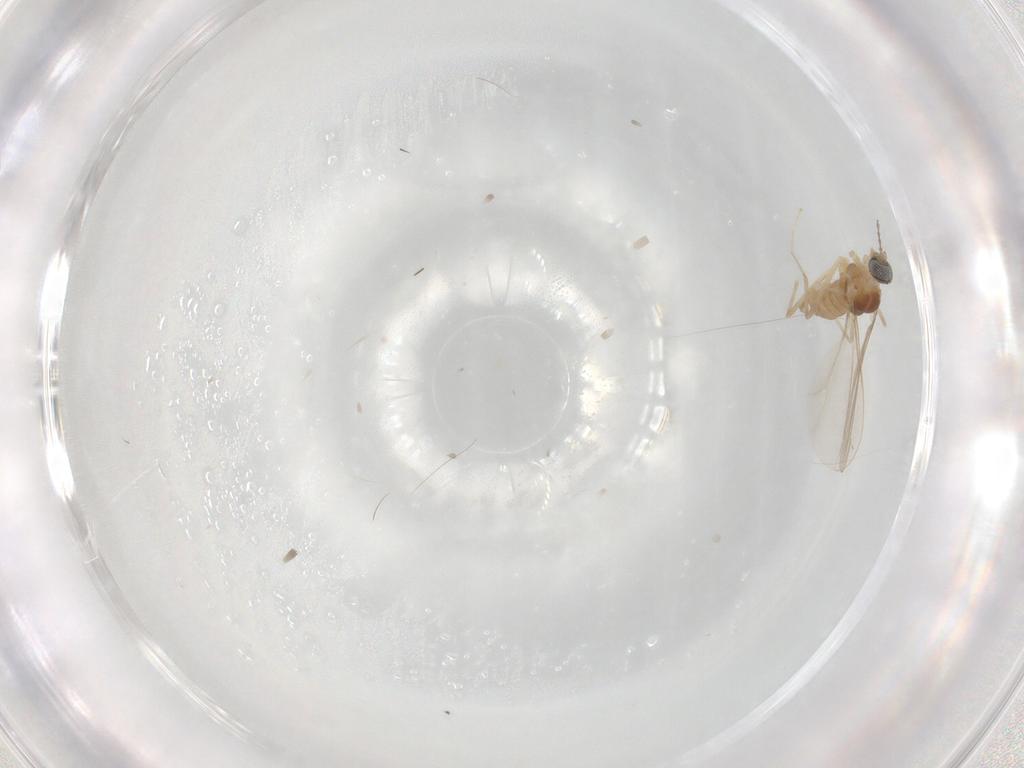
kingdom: Animalia
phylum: Arthropoda
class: Insecta
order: Diptera
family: Cecidomyiidae
